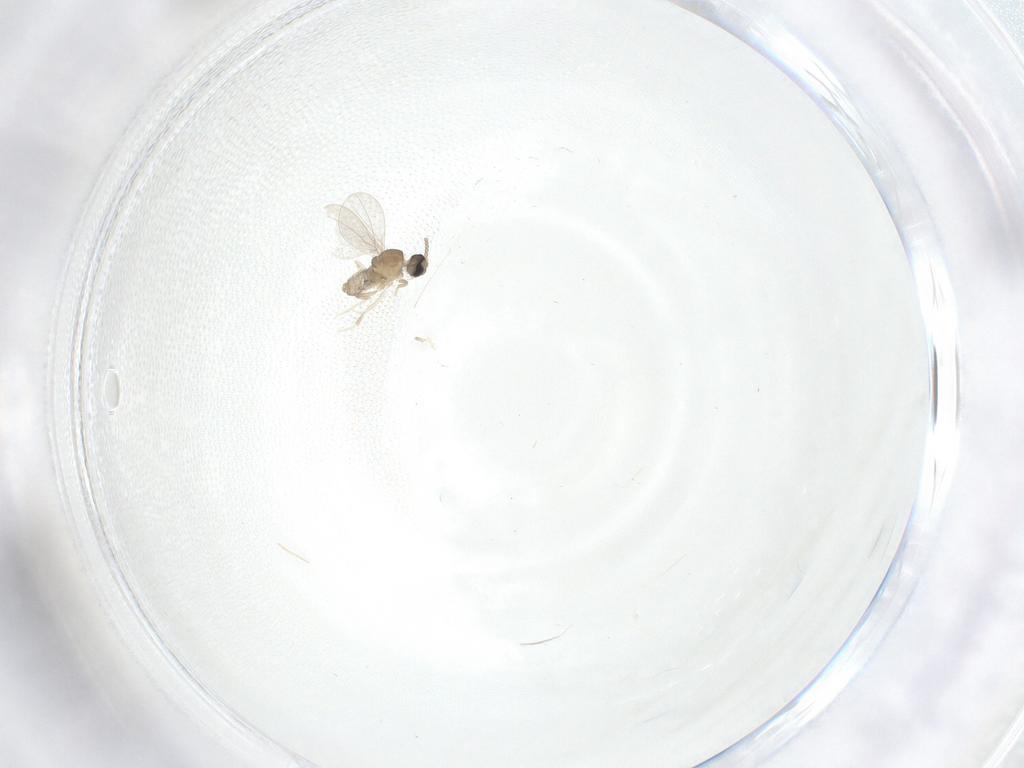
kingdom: Animalia
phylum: Arthropoda
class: Insecta
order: Diptera
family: Cecidomyiidae
